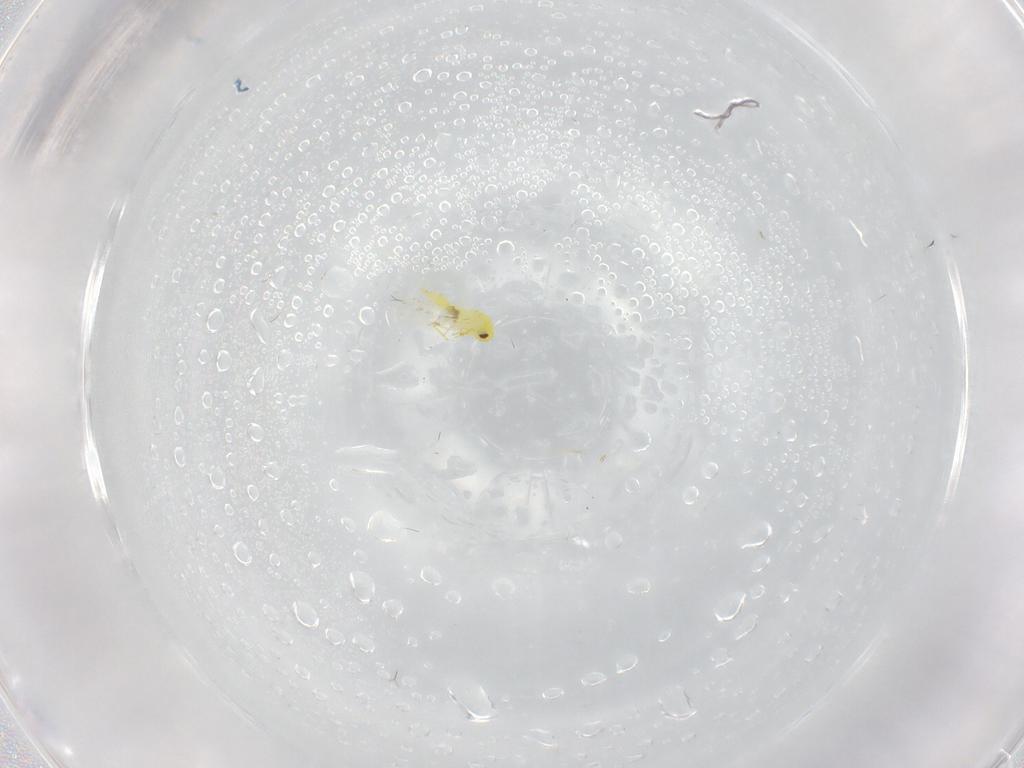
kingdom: Animalia
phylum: Arthropoda
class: Insecta
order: Hemiptera
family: Aleyrodidae
